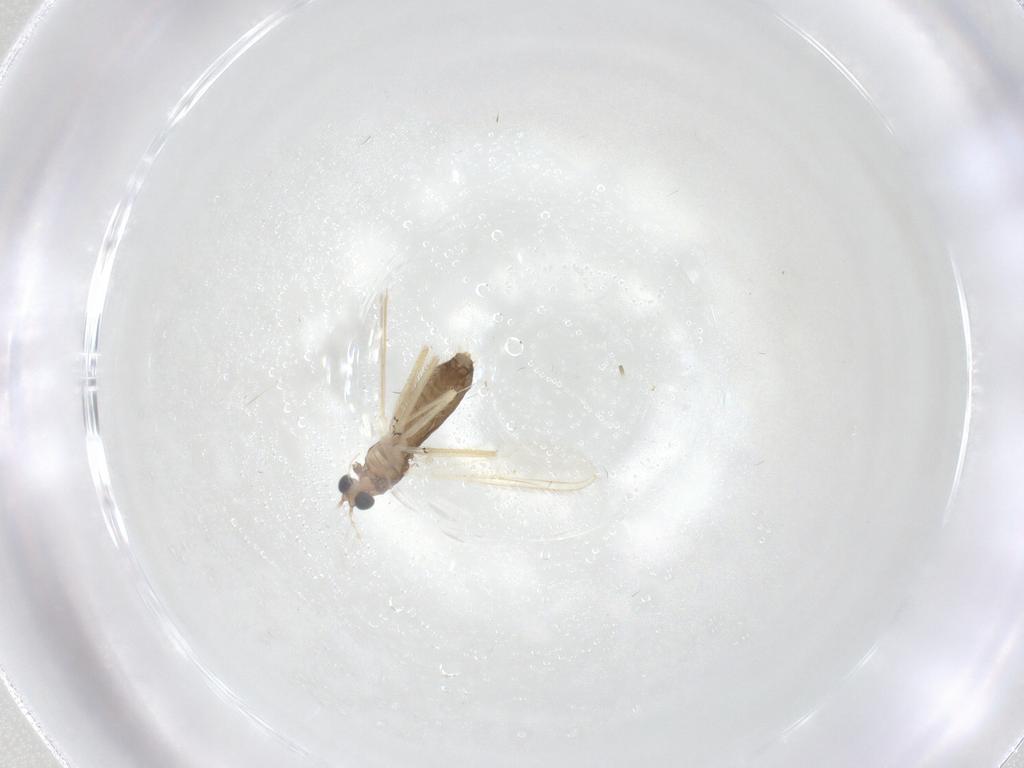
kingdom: Animalia
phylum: Arthropoda
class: Insecta
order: Diptera
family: Chironomidae
